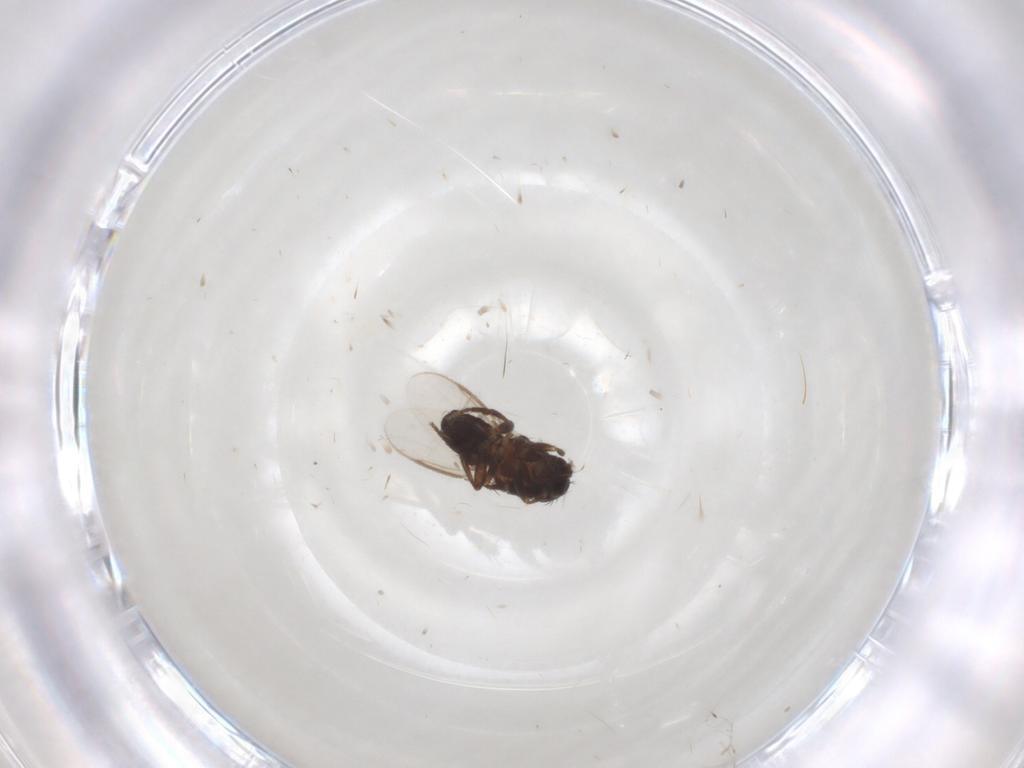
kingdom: Animalia
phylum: Arthropoda
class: Insecta
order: Diptera
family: Sphaeroceridae
